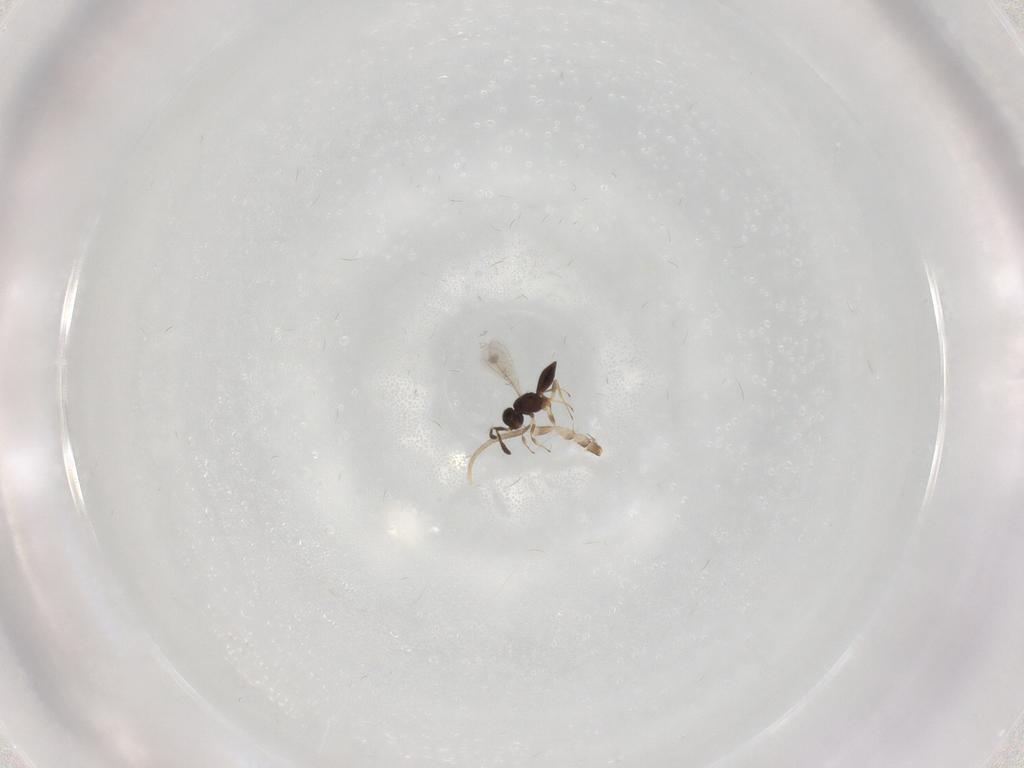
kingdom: Animalia
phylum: Arthropoda
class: Insecta
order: Hymenoptera
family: Scelionidae
